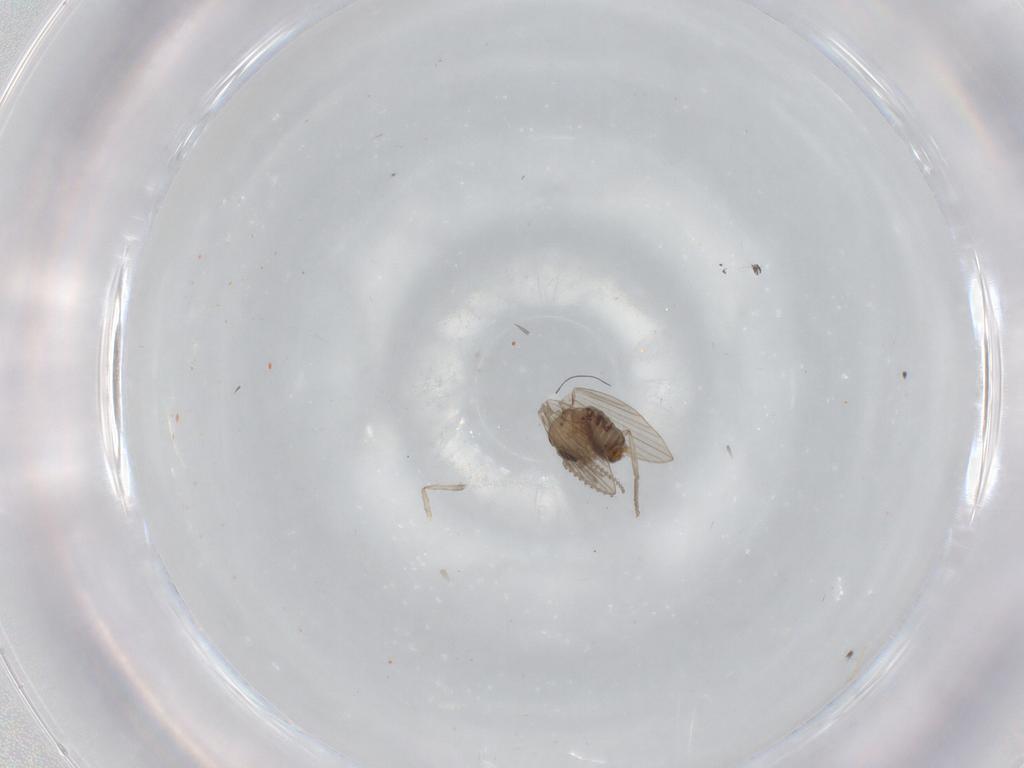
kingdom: Animalia
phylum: Arthropoda
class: Insecta
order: Diptera
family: Psychodidae
